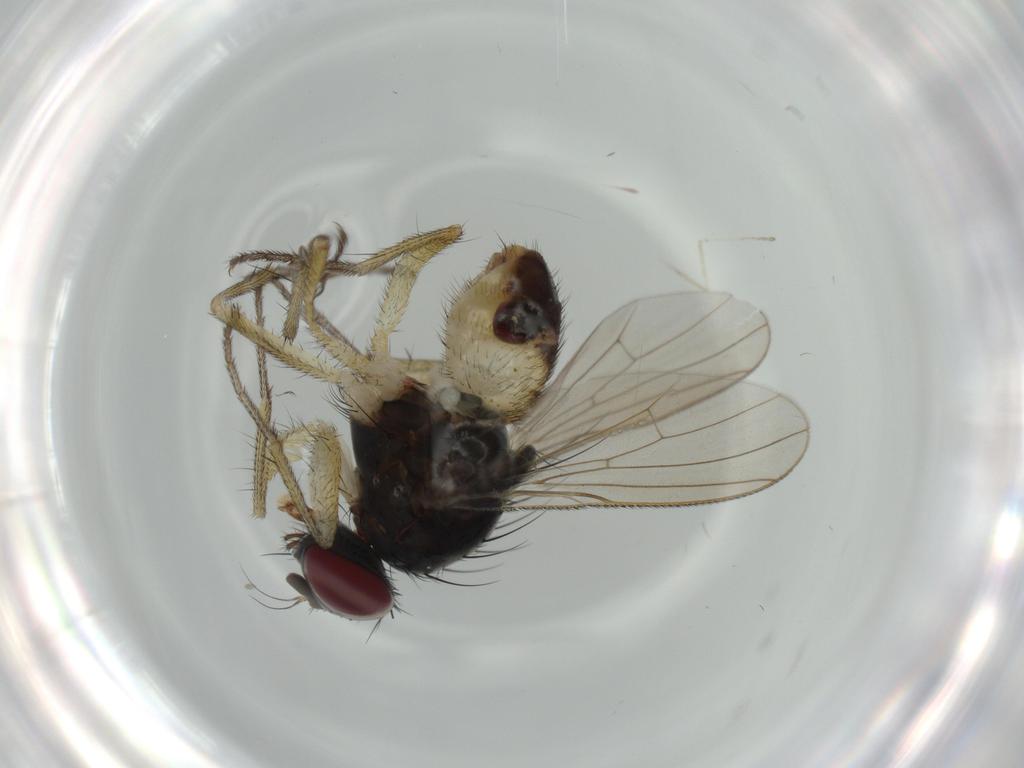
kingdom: Animalia
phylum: Arthropoda
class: Insecta
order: Diptera
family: Muscidae
